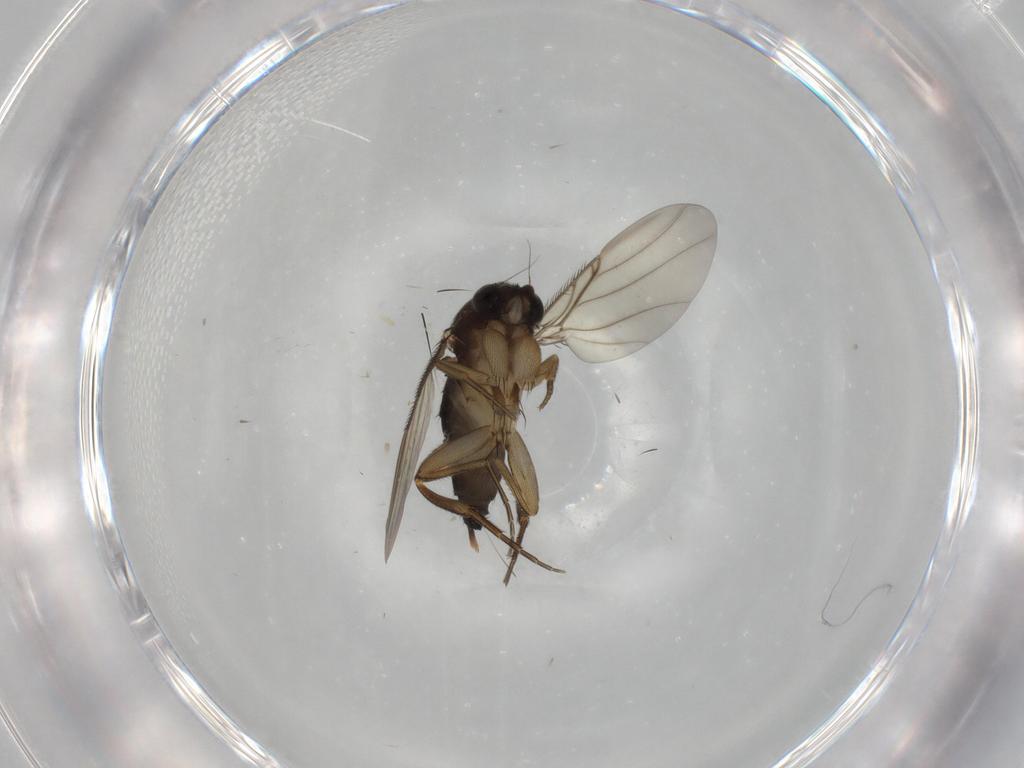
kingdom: Animalia
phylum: Arthropoda
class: Insecta
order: Diptera
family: Phoridae
